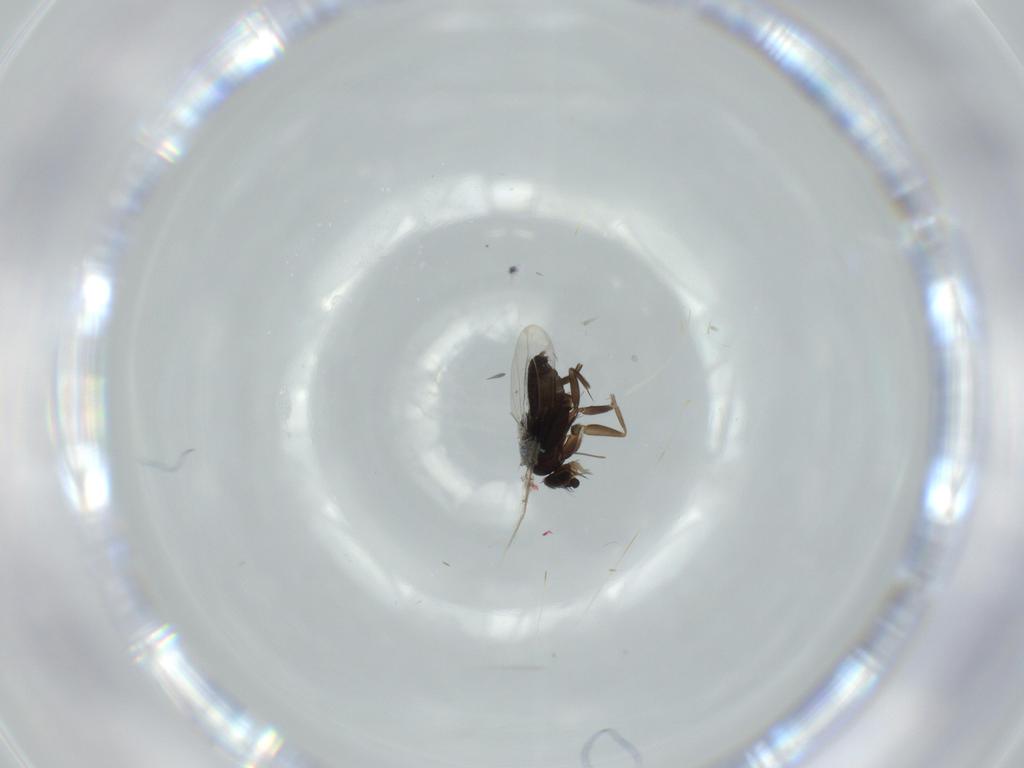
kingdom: Animalia
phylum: Arthropoda
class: Insecta
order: Diptera
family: Phoridae
